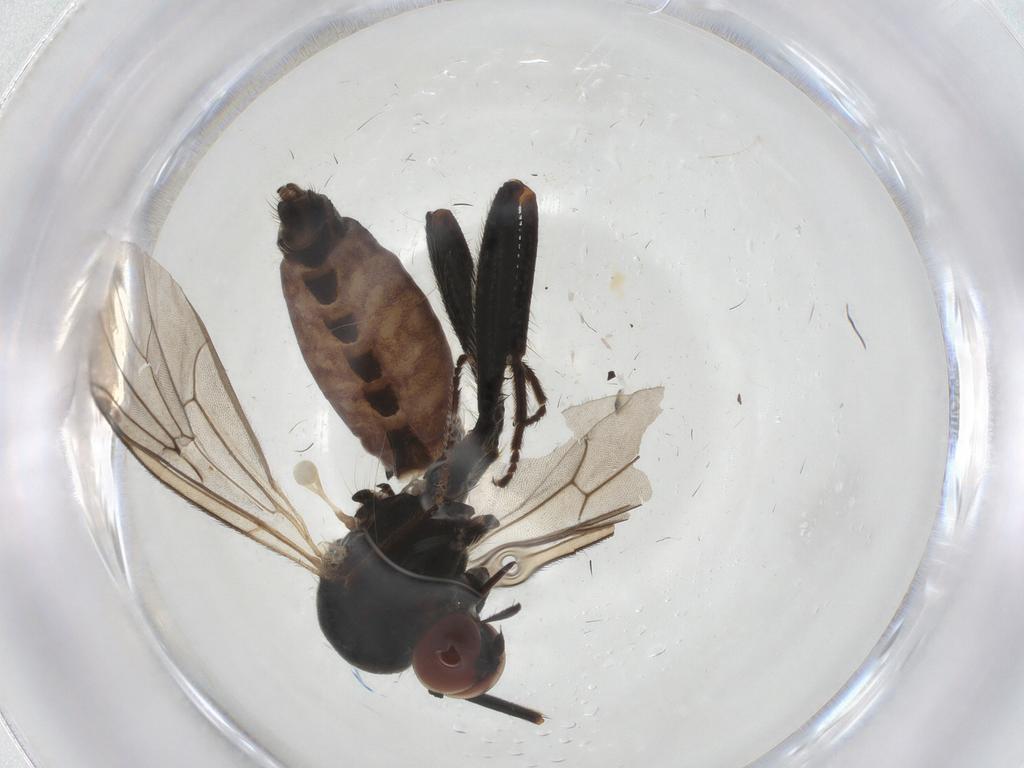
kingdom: Animalia
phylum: Arthropoda
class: Insecta
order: Diptera
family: Hybotidae
